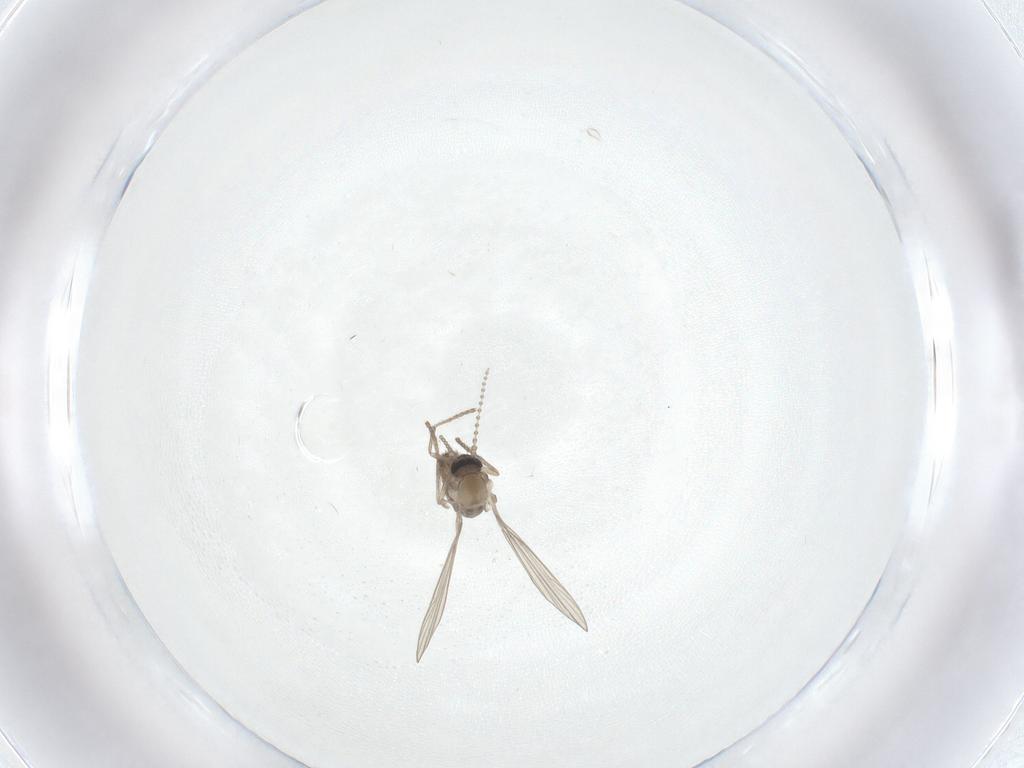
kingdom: Animalia
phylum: Arthropoda
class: Insecta
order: Diptera
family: Psychodidae
